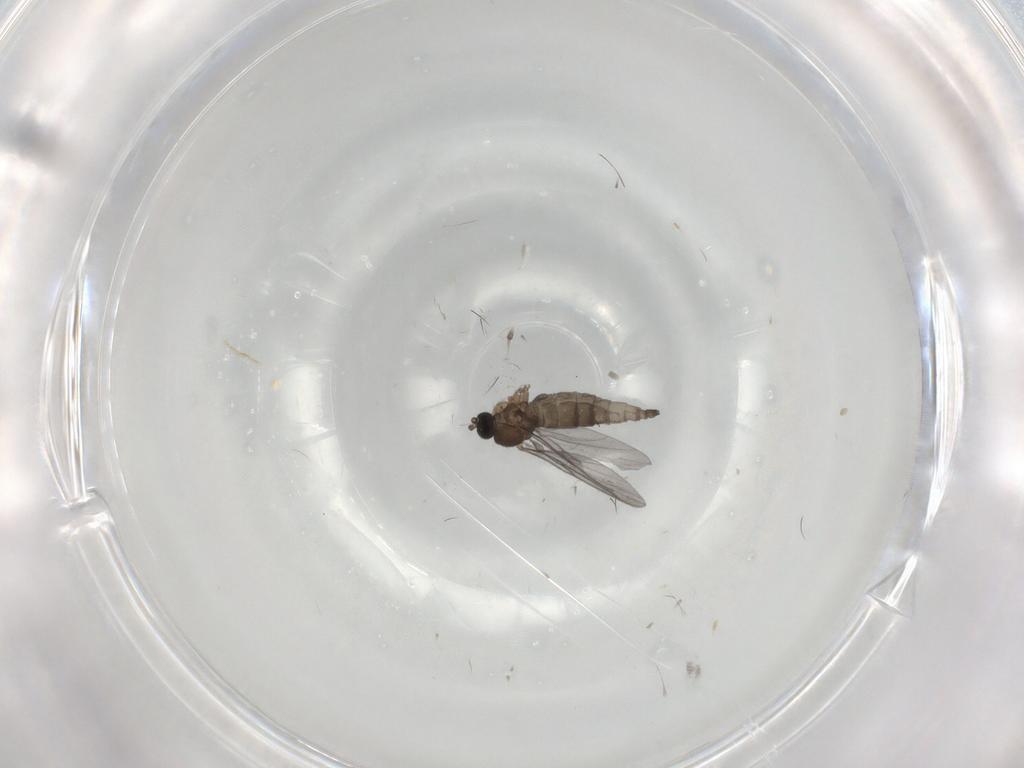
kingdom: Animalia
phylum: Arthropoda
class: Insecta
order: Diptera
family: Sciaridae
